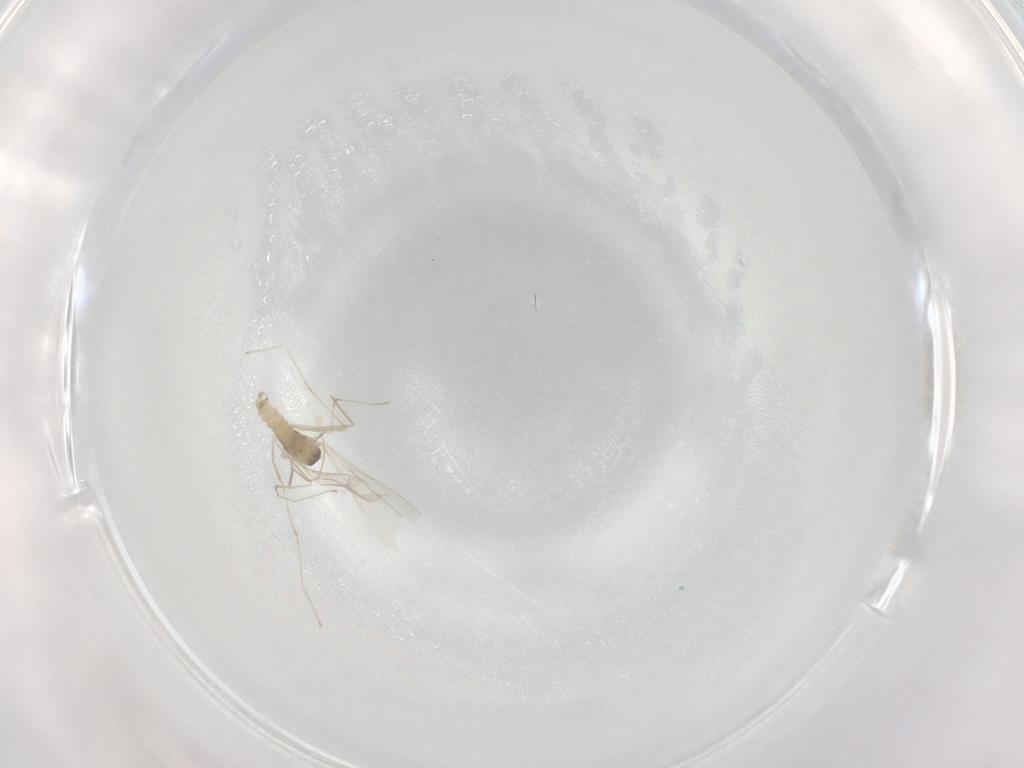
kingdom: Animalia
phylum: Arthropoda
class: Insecta
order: Diptera
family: Cecidomyiidae
